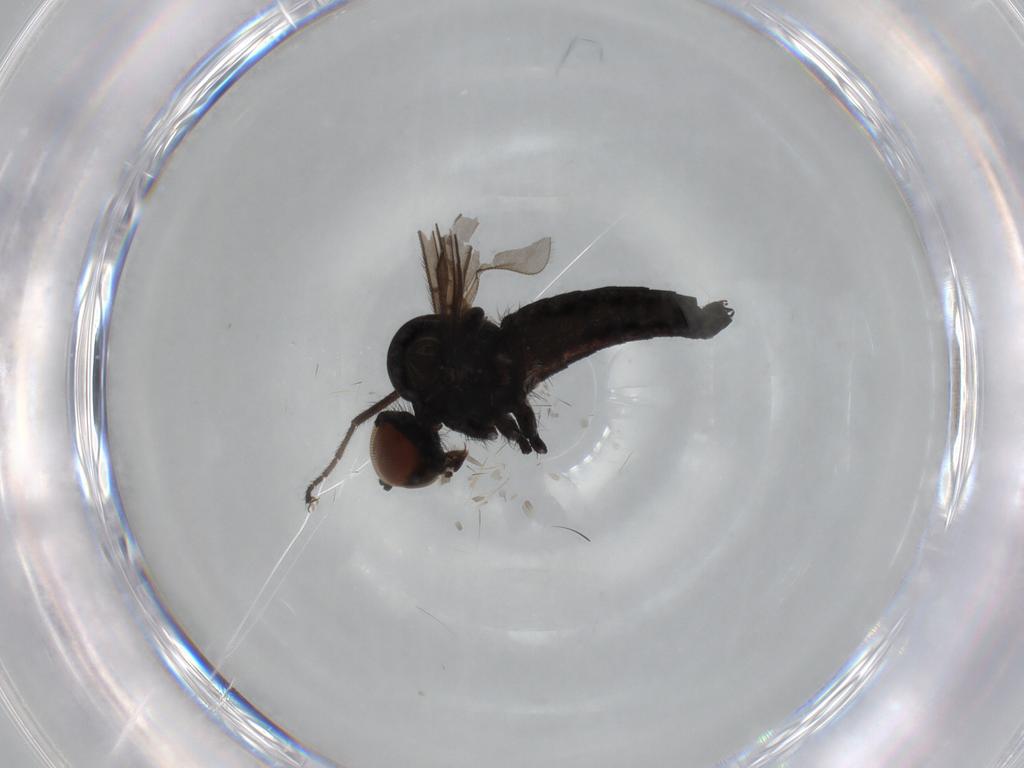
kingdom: Animalia
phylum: Arthropoda
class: Insecta
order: Diptera
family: Hybotidae
